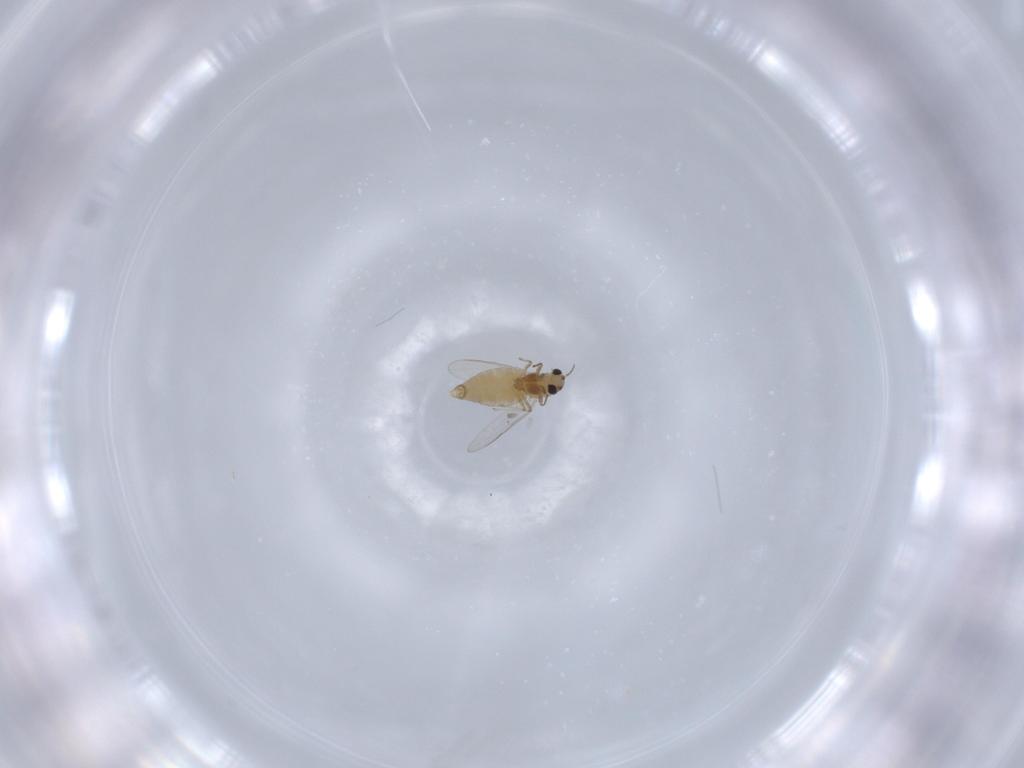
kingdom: Animalia
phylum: Arthropoda
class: Insecta
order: Diptera
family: Chironomidae
